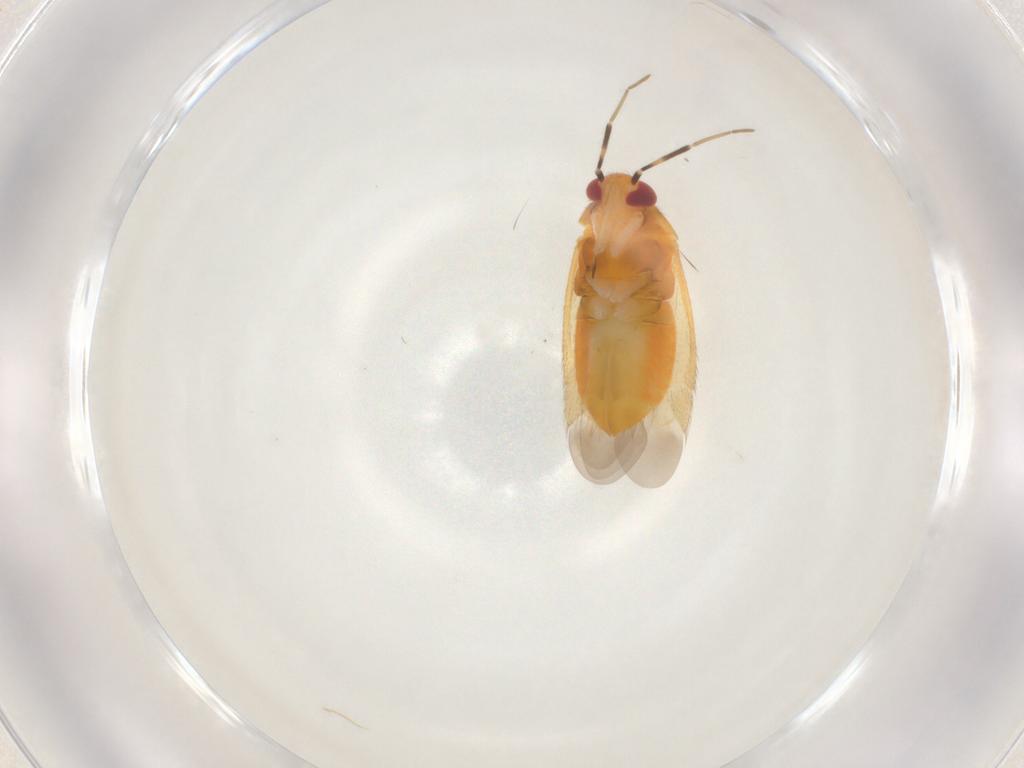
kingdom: Animalia
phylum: Arthropoda
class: Insecta
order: Hemiptera
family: Miridae
